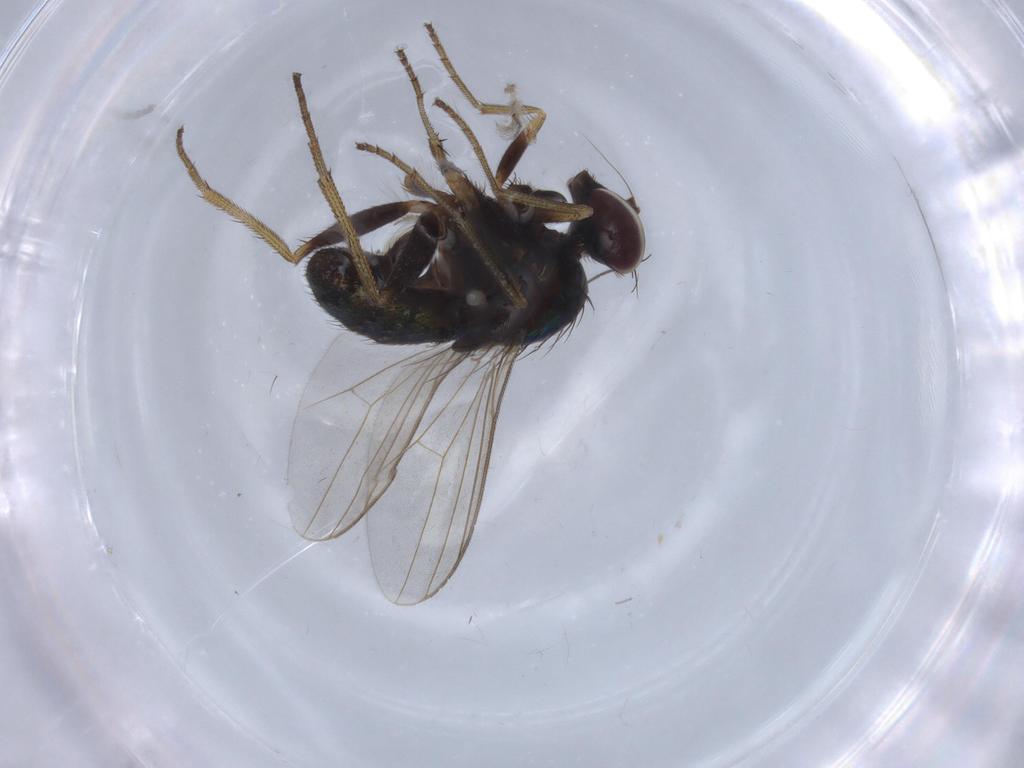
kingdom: Animalia
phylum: Arthropoda
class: Insecta
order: Diptera
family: Dolichopodidae
